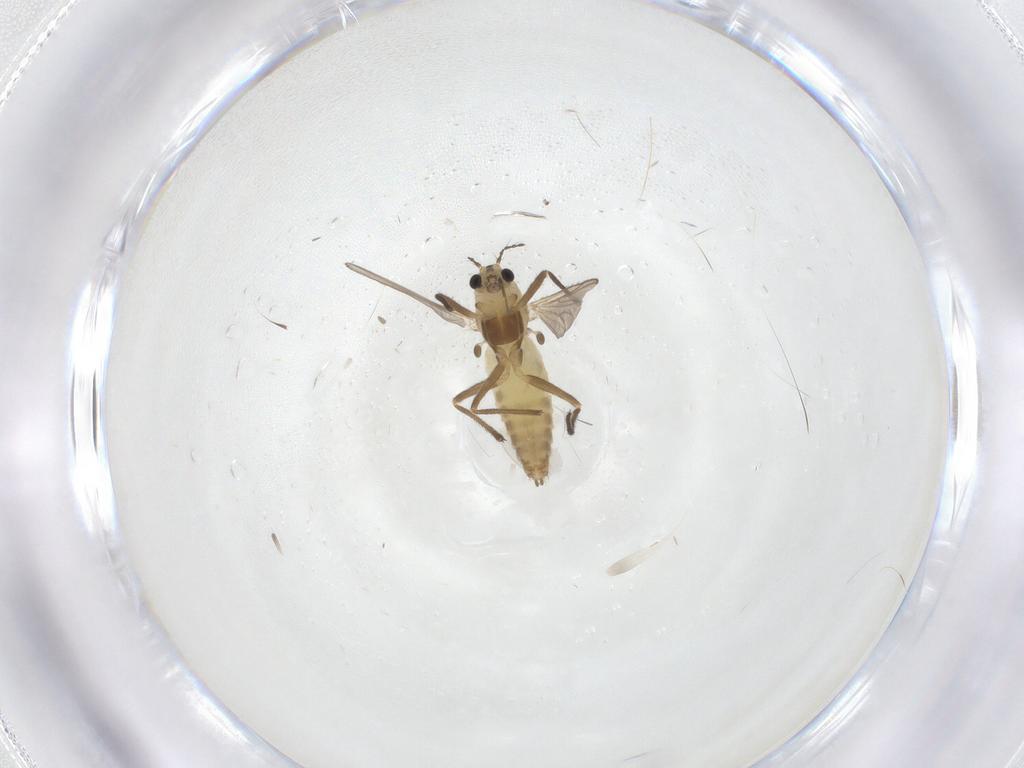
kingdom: Animalia
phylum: Arthropoda
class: Insecta
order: Diptera
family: Chironomidae
